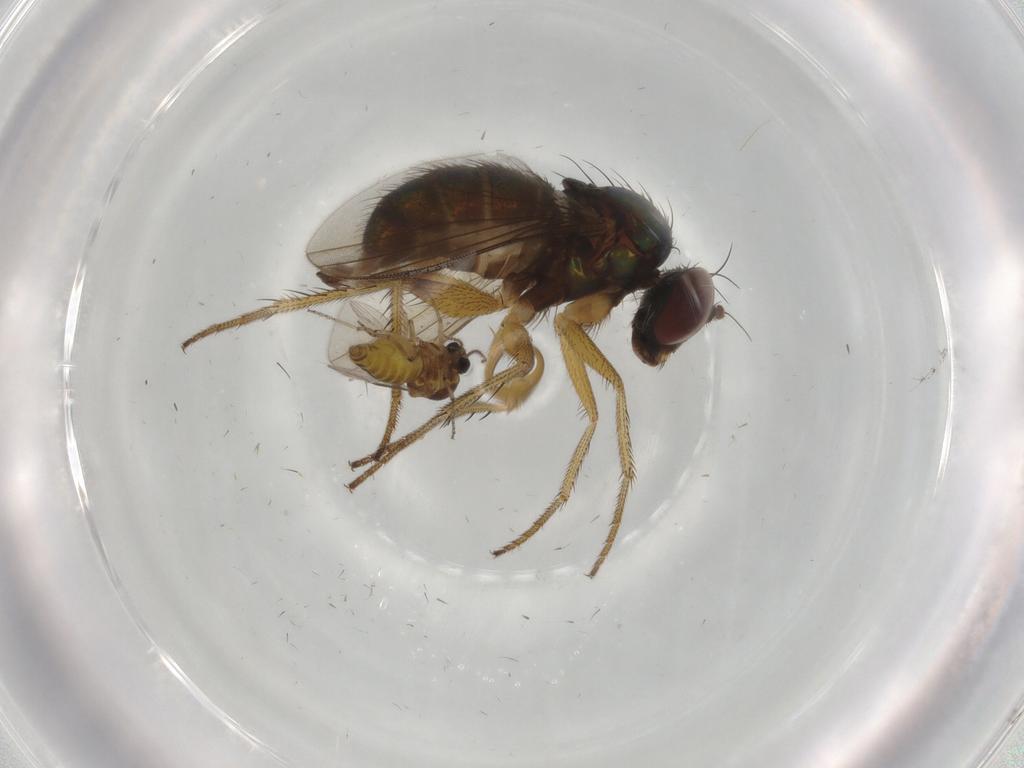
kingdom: Animalia
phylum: Arthropoda
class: Insecta
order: Diptera
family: Dolichopodidae
